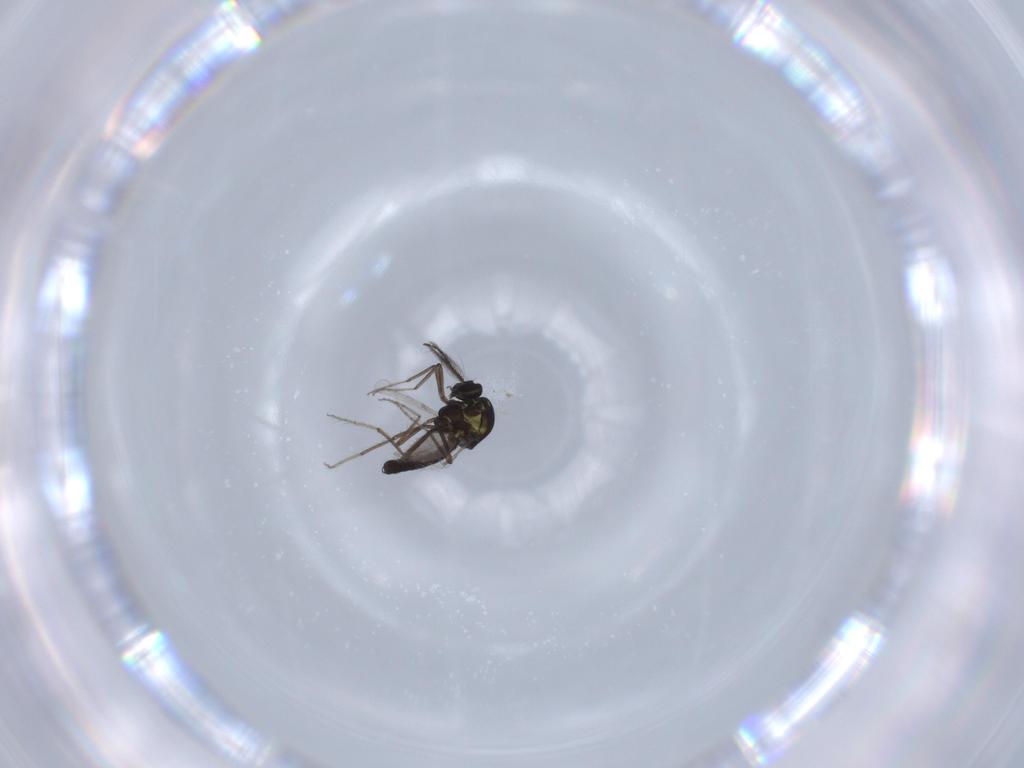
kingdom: Animalia
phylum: Arthropoda
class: Insecta
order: Diptera
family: Ceratopogonidae
